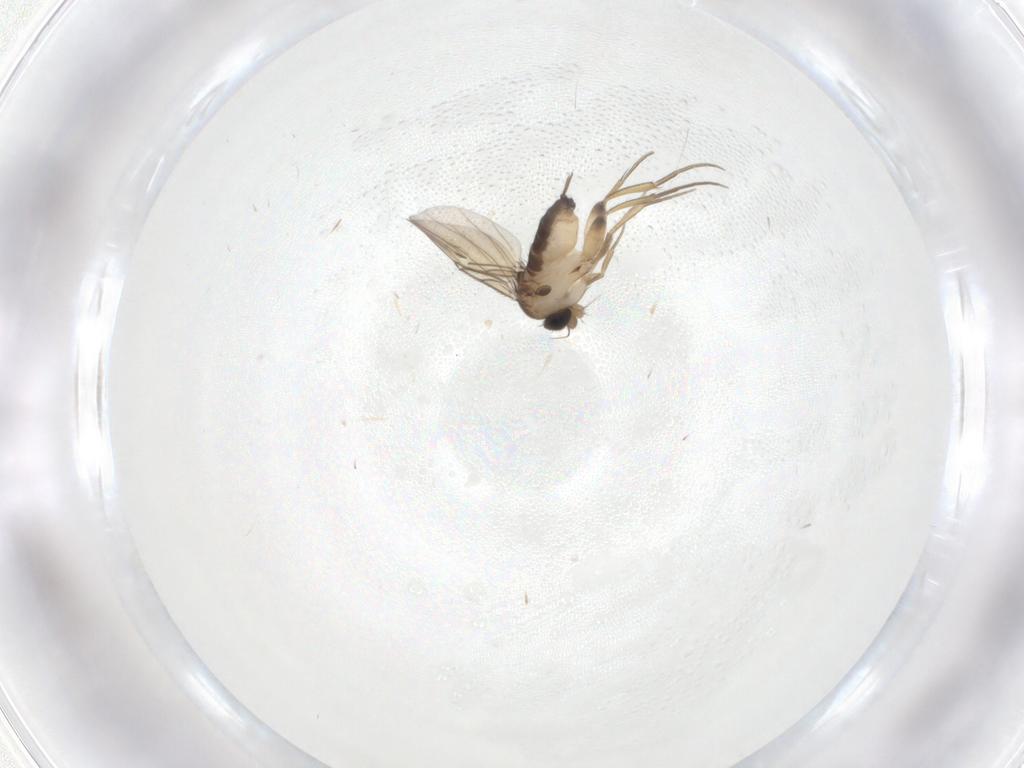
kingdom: Animalia
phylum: Arthropoda
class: Insecta
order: Diptera
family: Phoridae
